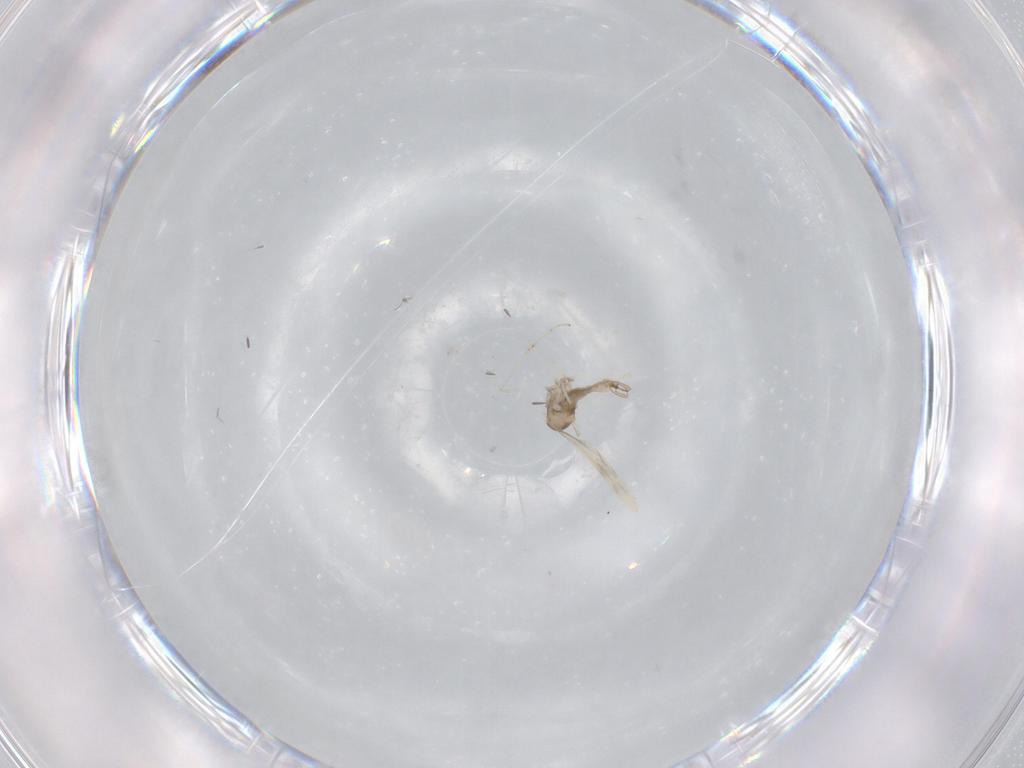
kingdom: Animalia
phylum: Arthropoda
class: Insecta
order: Diptera
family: Cecidomyiidae
